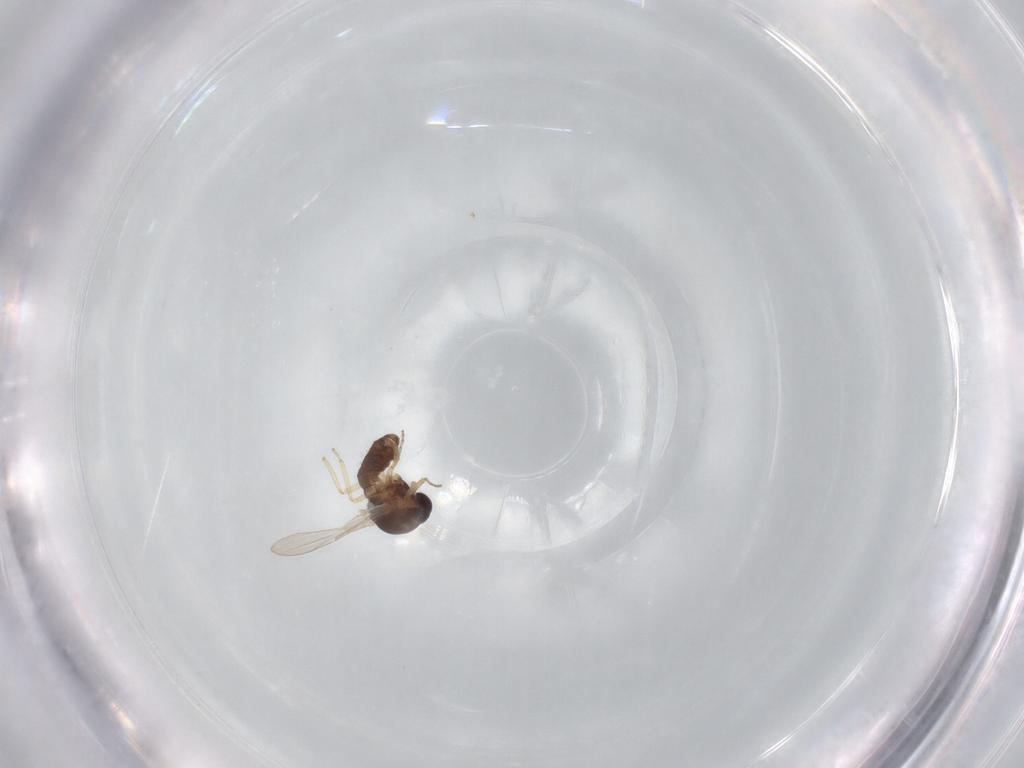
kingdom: Animalia
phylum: Arthropoda
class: Insecta
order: Diptera
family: Ceratopogonidae
